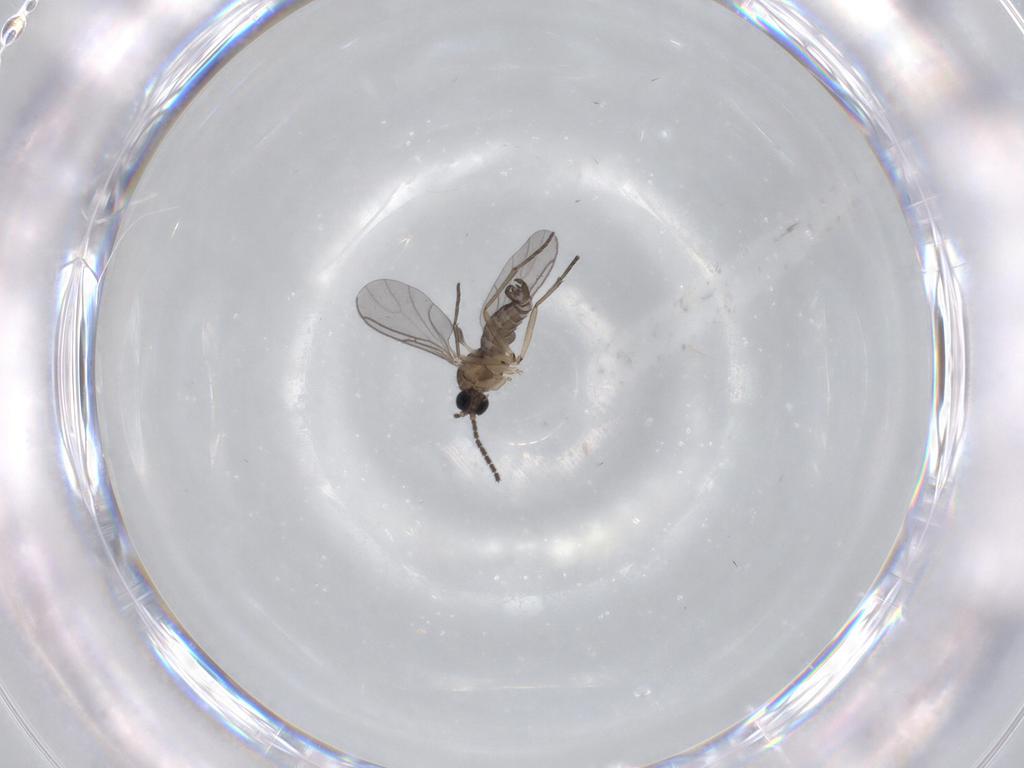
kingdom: Animalia
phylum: Arthropoda
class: Insecta
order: Diptera
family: Sciaridae
